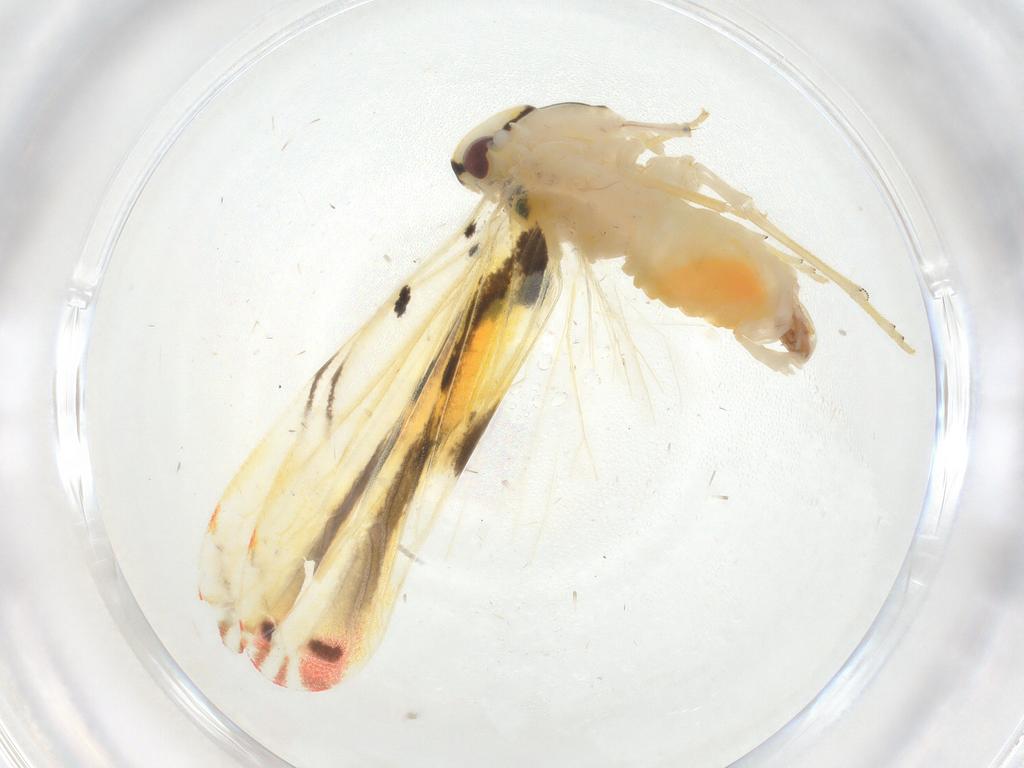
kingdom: Animalia
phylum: Arthropoda
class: Insecta
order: Hemiptera
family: Derbidae
